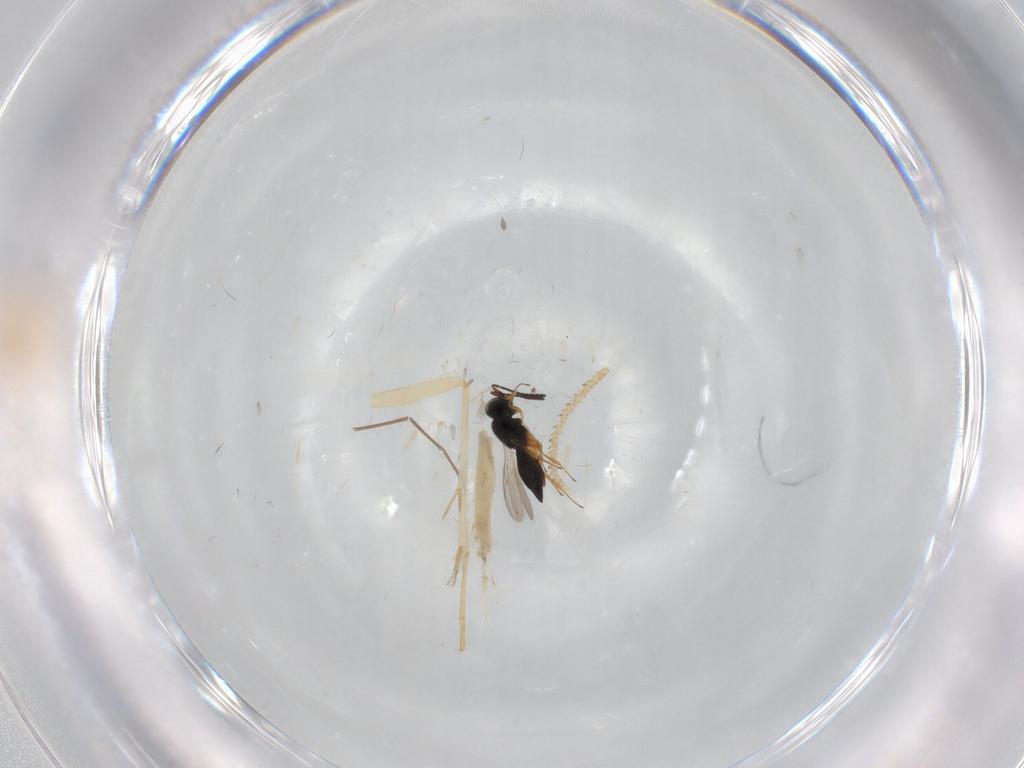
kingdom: Animalia
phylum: Arthropoda
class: Insecta
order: Hymenoptera
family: Scelionidae
